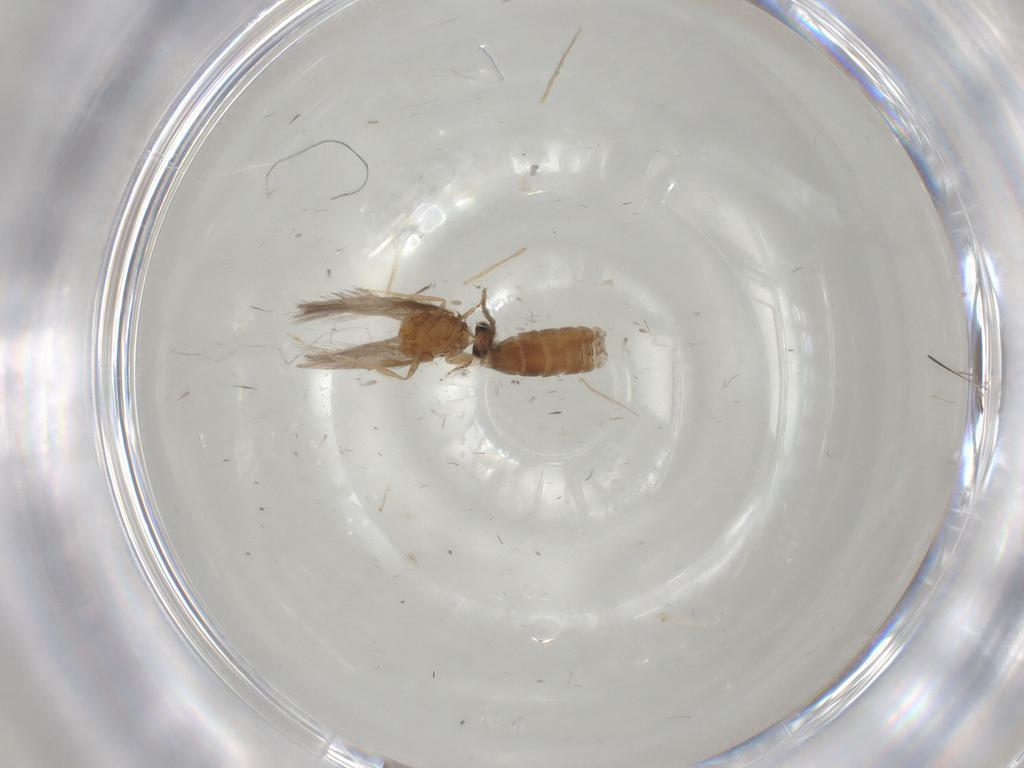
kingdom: Animalia
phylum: Arthropoda
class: Insecta
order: Trichoptera
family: Hydroptilidae
